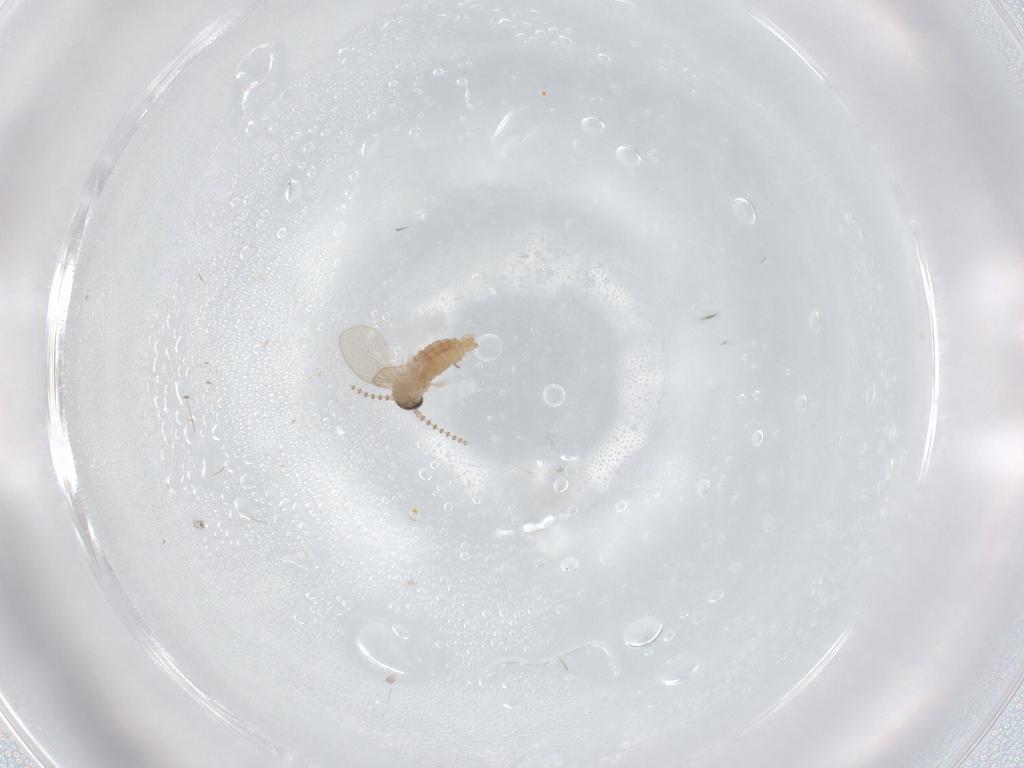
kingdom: Animalia
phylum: Arthropoda
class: Insecta
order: Diptera
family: Psychodidae
